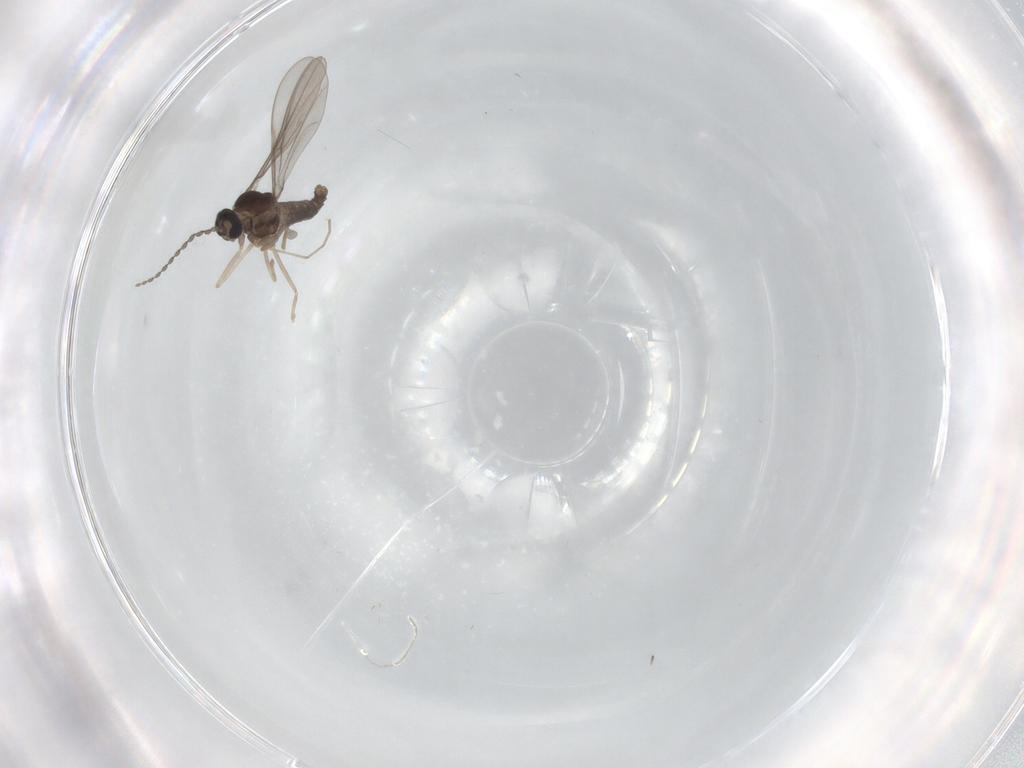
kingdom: Animalia
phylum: Arthropoda
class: Insecta
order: Diptera
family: Cecidomyiidae
